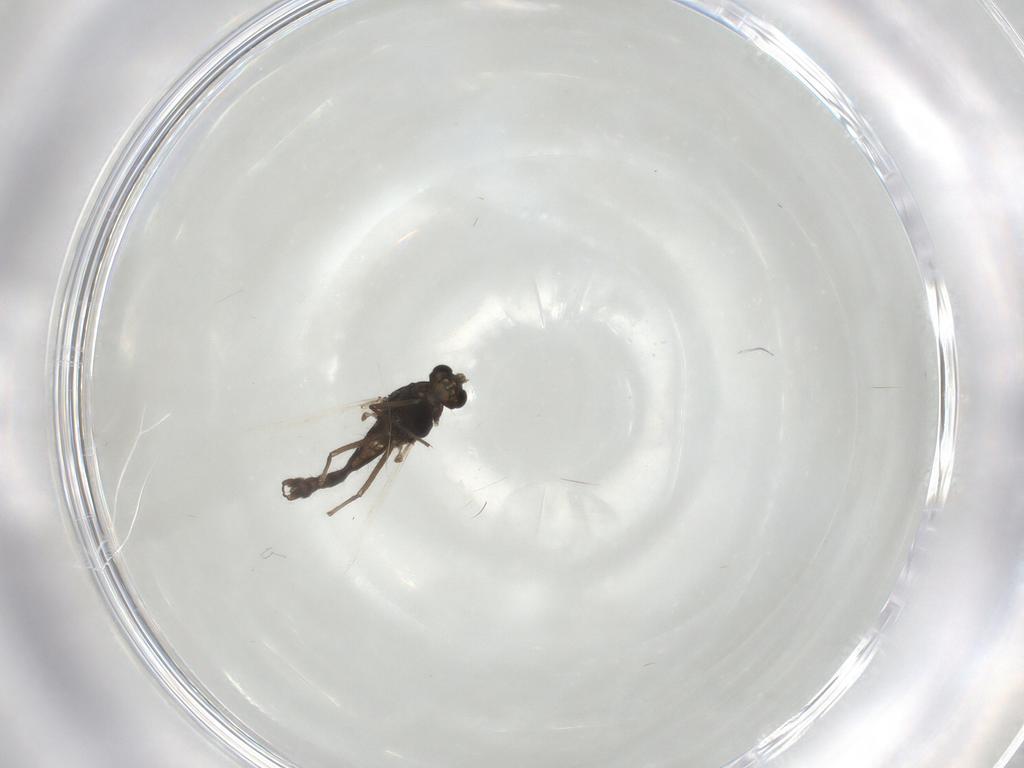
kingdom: Animalia
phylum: Arthropoda
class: Insecta
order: Diptera
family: Chironomidae
